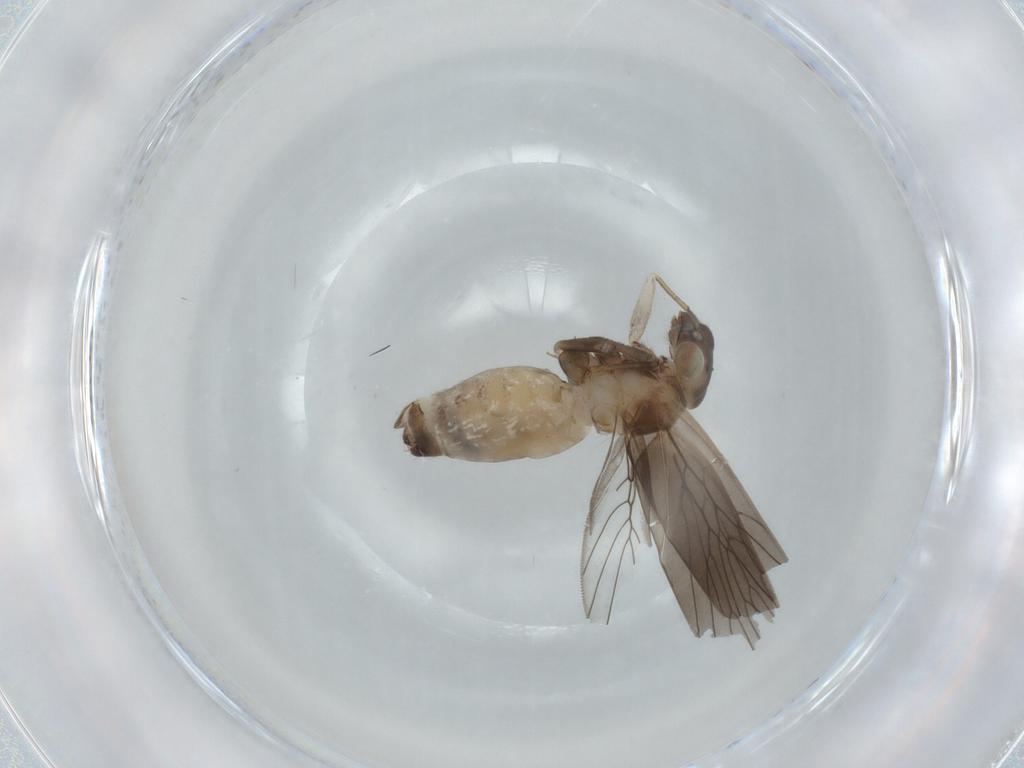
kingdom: Animalia
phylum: Arthropoda
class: Insecta
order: Psocodea
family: Lepidopsocidae
